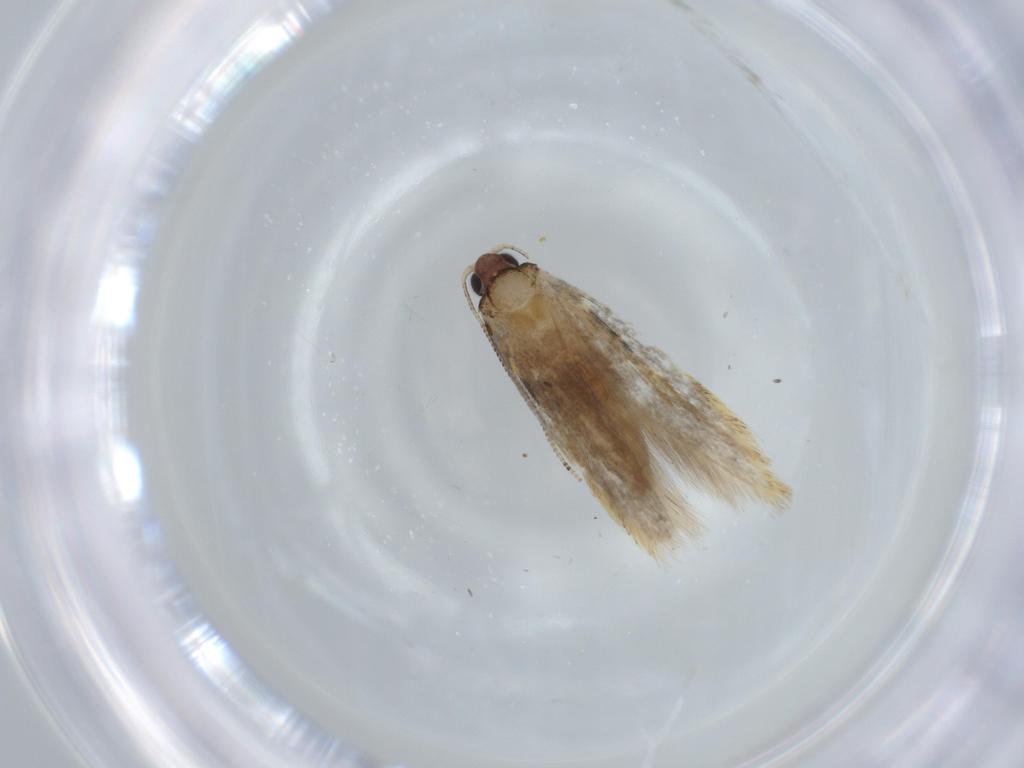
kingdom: Animalia
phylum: Arthropoda
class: Insecta
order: Lepidoptera
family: Tineidae
